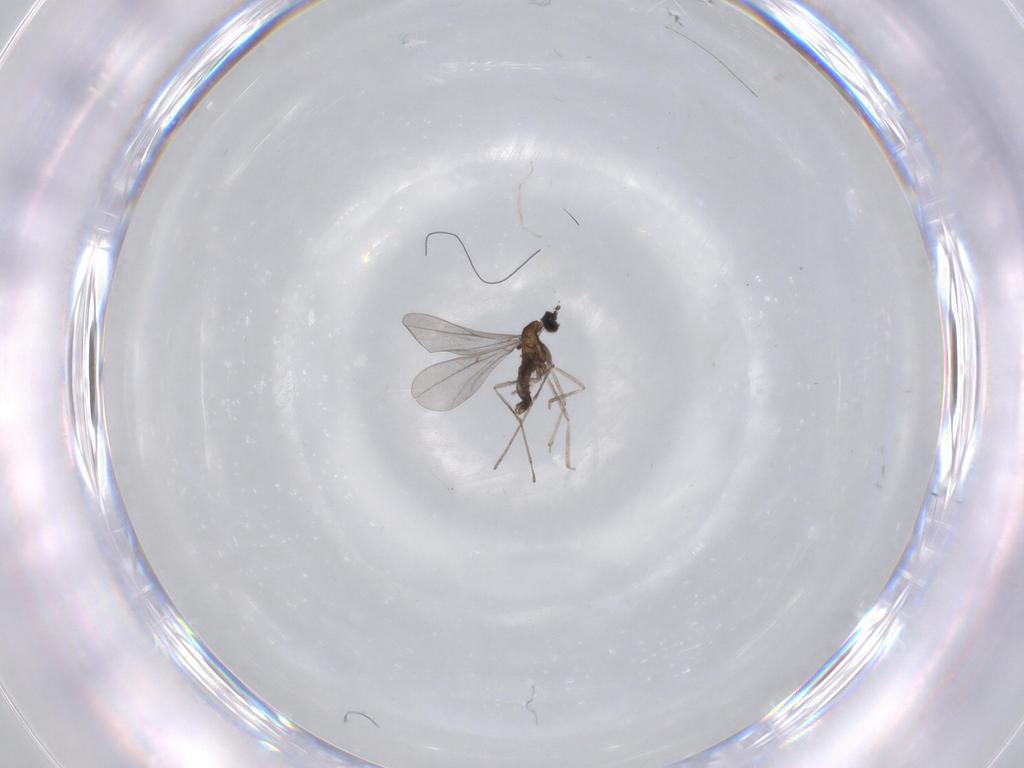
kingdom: Animalia
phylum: Arthropoda
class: Insecta
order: Diptera
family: Cecidomyiidae
